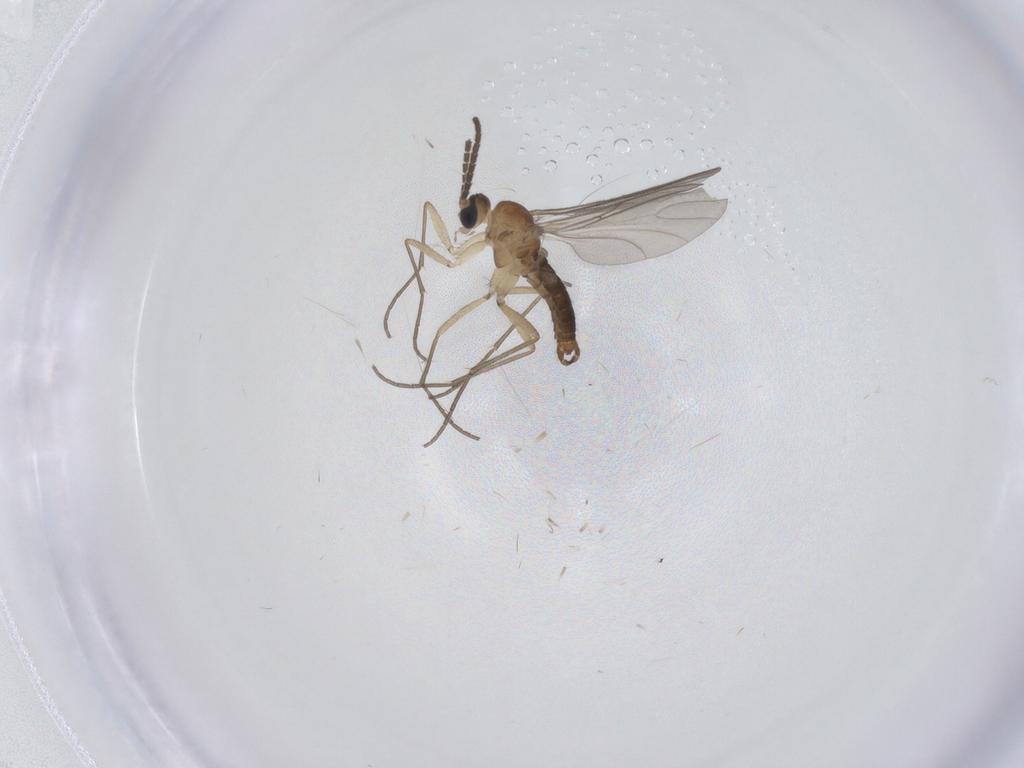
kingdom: Animalia
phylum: Arthropoda
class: Insecta
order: Diptera
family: Sciaridae
